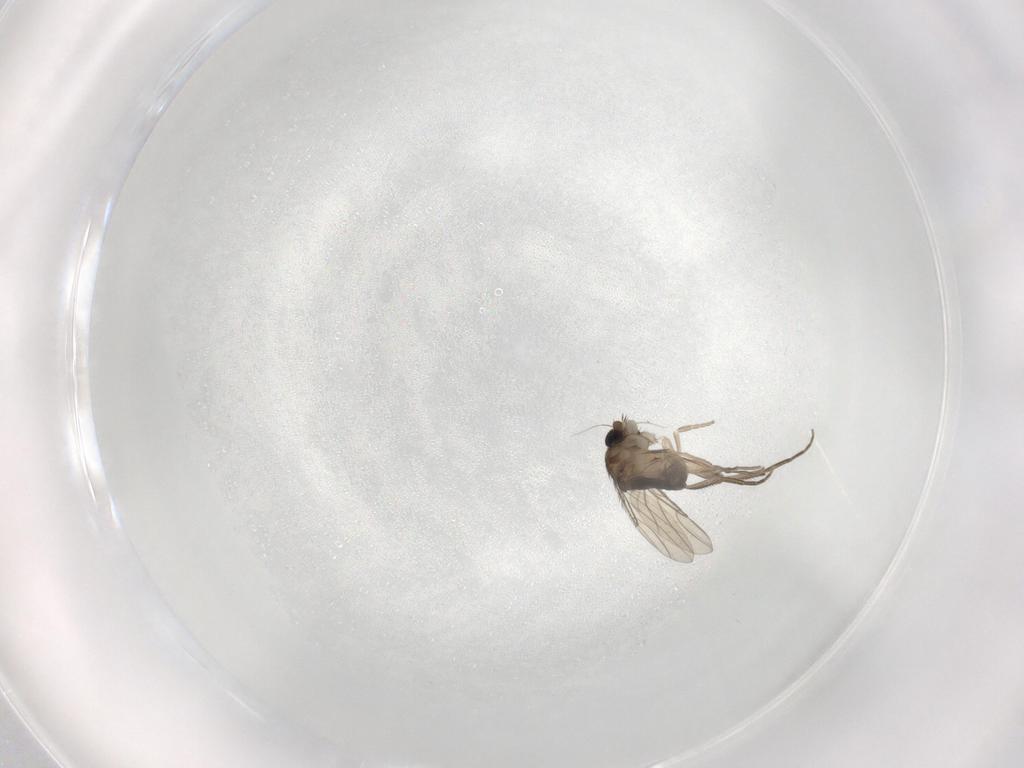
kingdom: Animalia
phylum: Arthropoda
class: Insecta
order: Diptera
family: Phoridae
